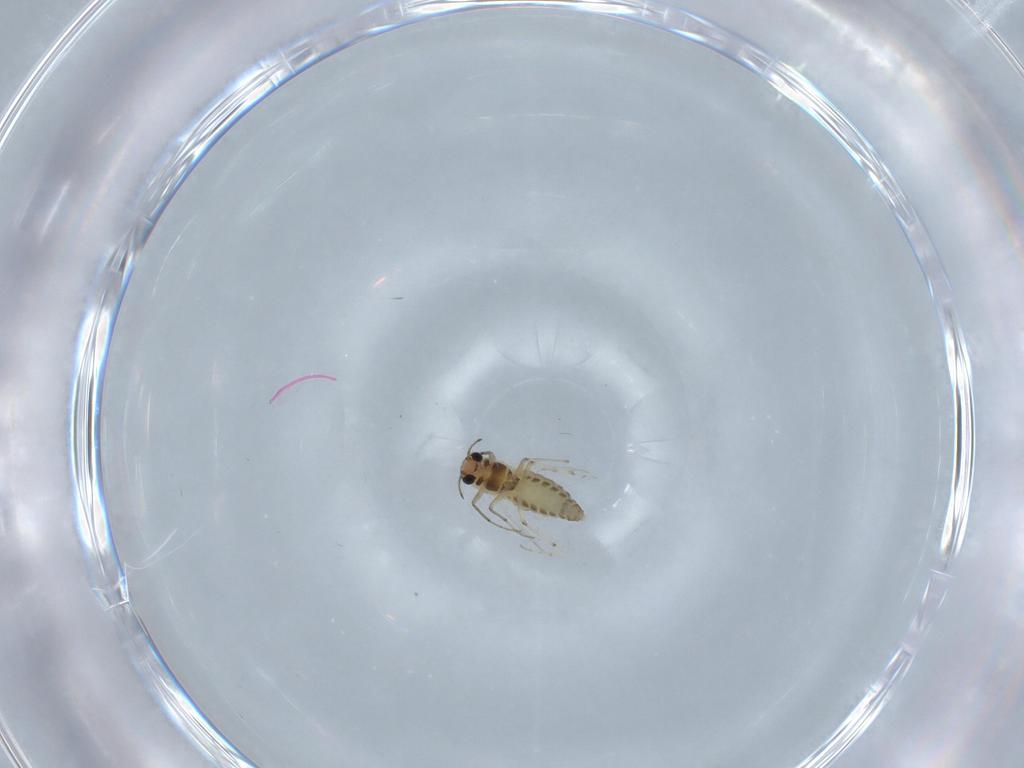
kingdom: Animalia
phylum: Arthropoda
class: Insecta
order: Diptera
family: Chironomidae
